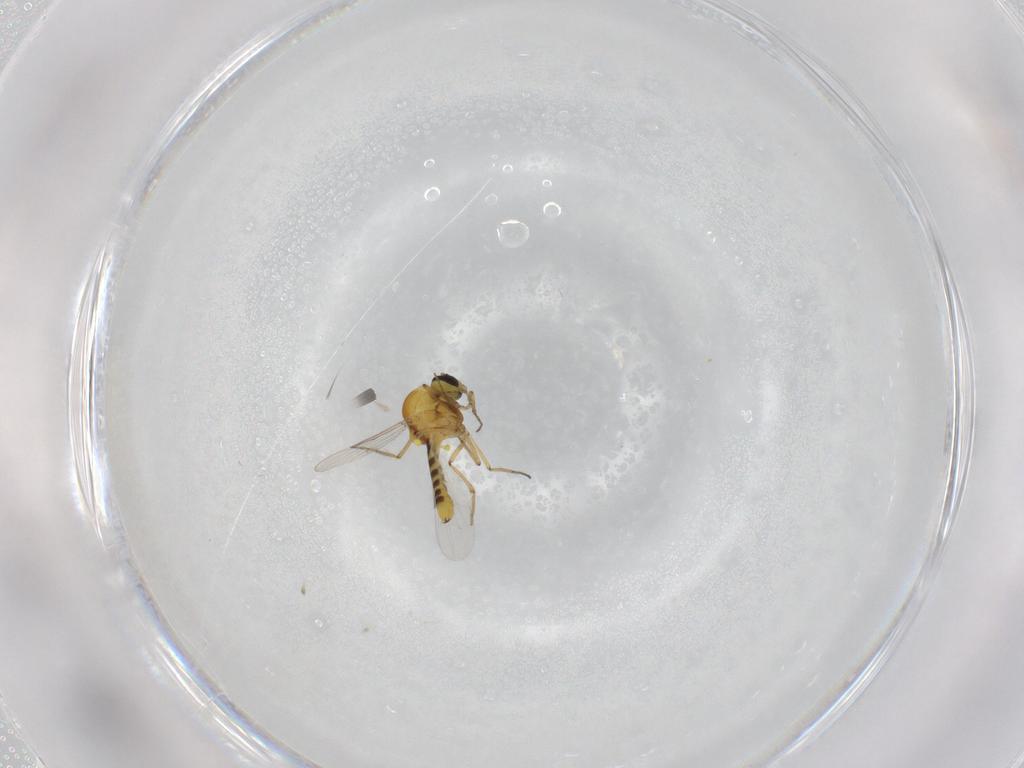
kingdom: Animalia
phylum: Arthropoda
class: Insecta
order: Diptera
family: Ceratopogonidae
